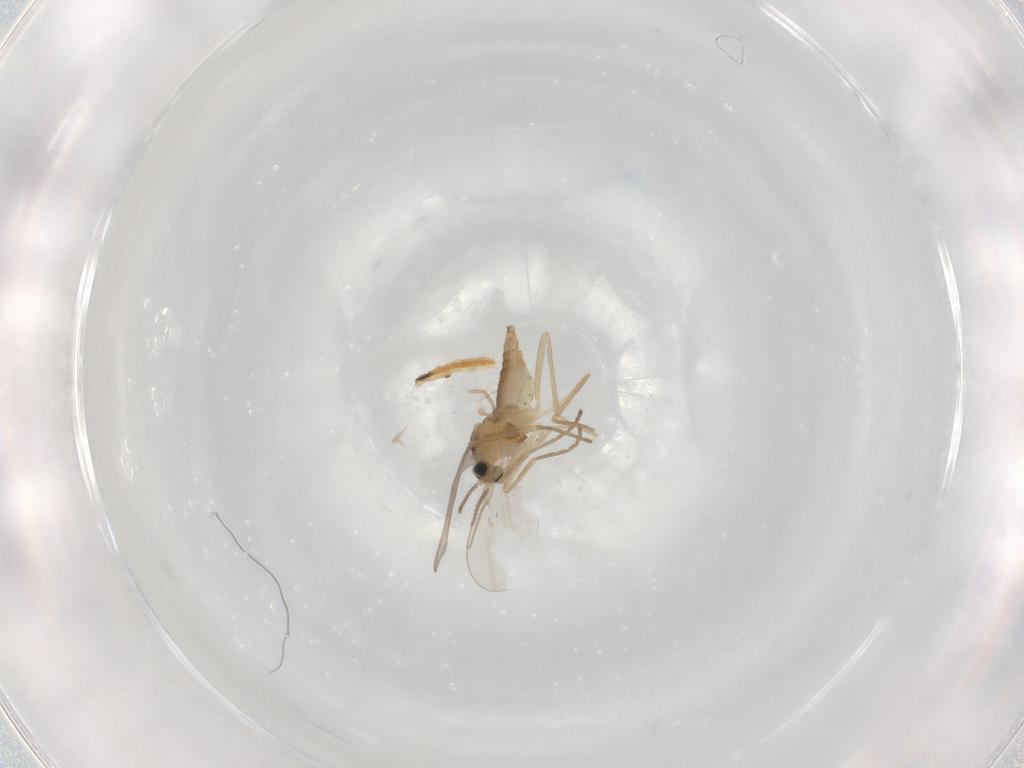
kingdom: Animalia
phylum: Arthropoda
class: Insecta
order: Diptera
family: Cecidomyiidae
